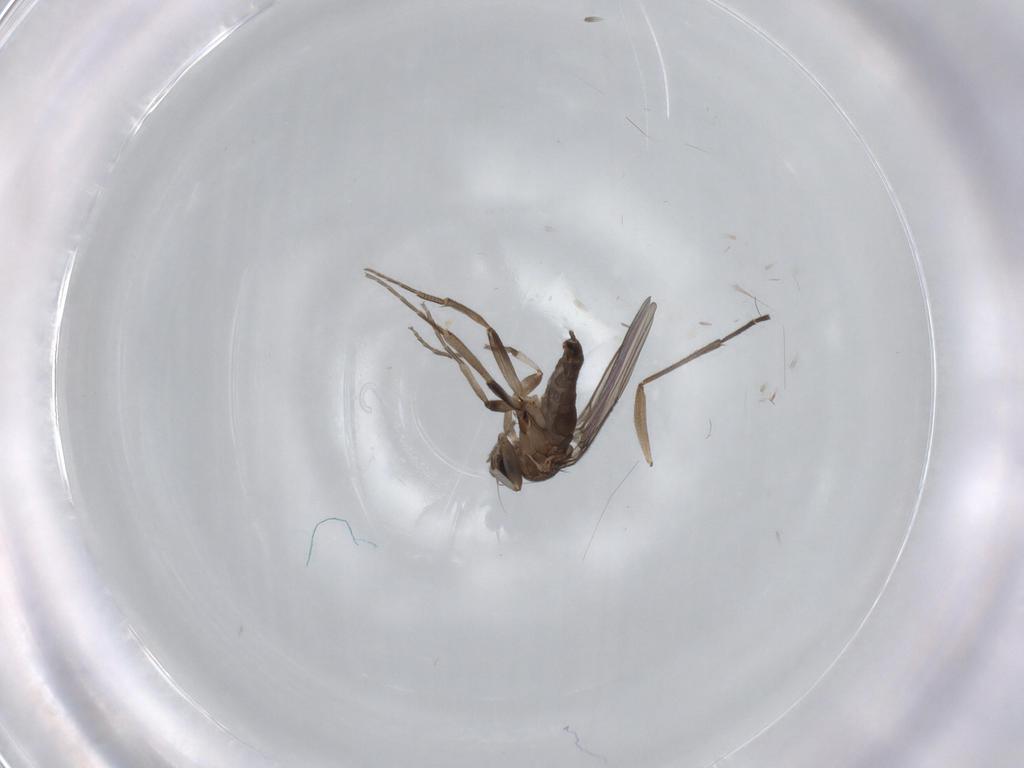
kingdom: Animalia
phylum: Arthropoda
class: Insecta
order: Diptera
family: Phoridae
